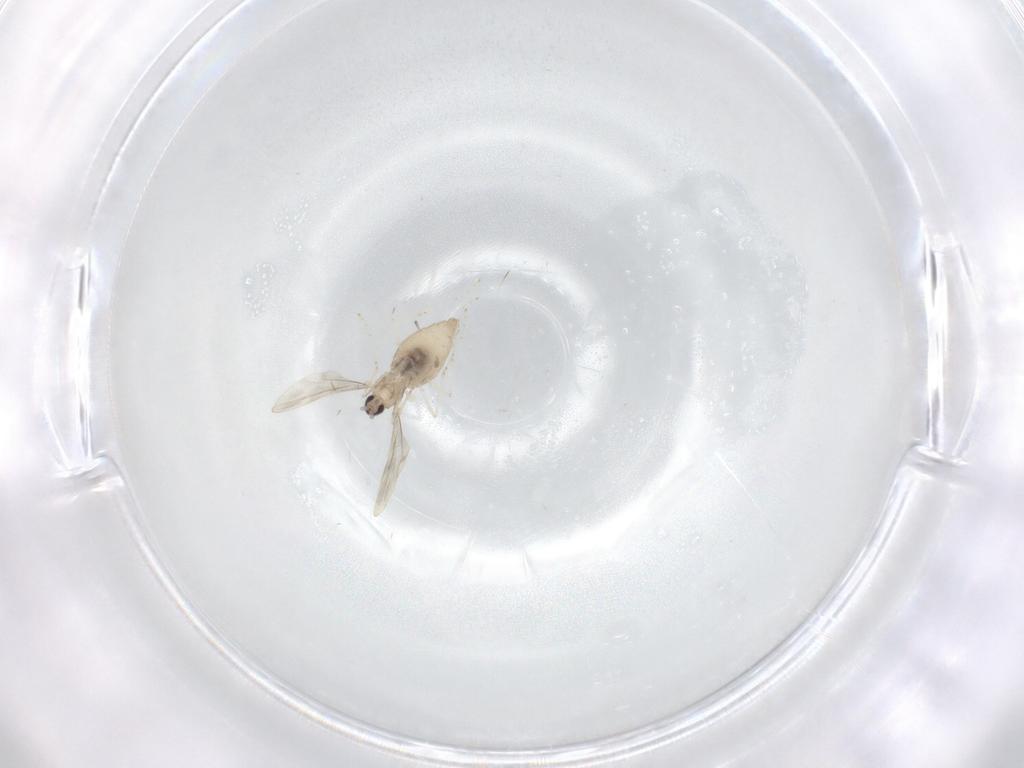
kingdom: Animalia
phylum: Arthropoda
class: Insecta
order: Diptera
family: Cecidomyiidae
